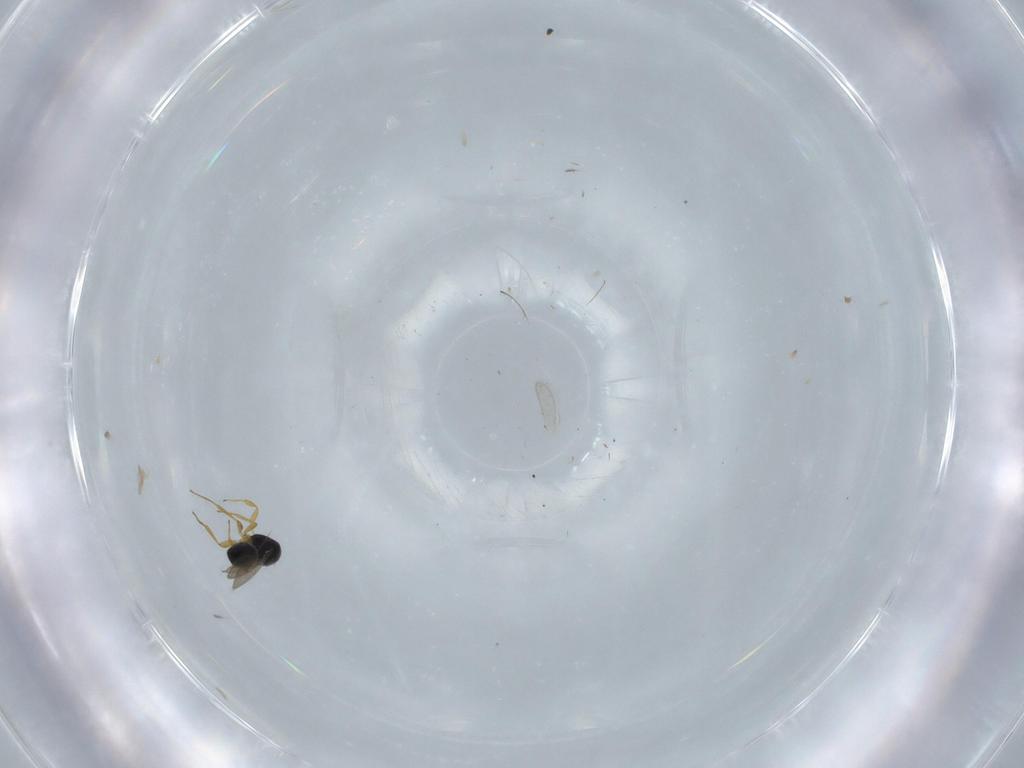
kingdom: Animalia
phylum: Arthropoda
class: Insecta
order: Hymenoptera
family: Scelionidae
